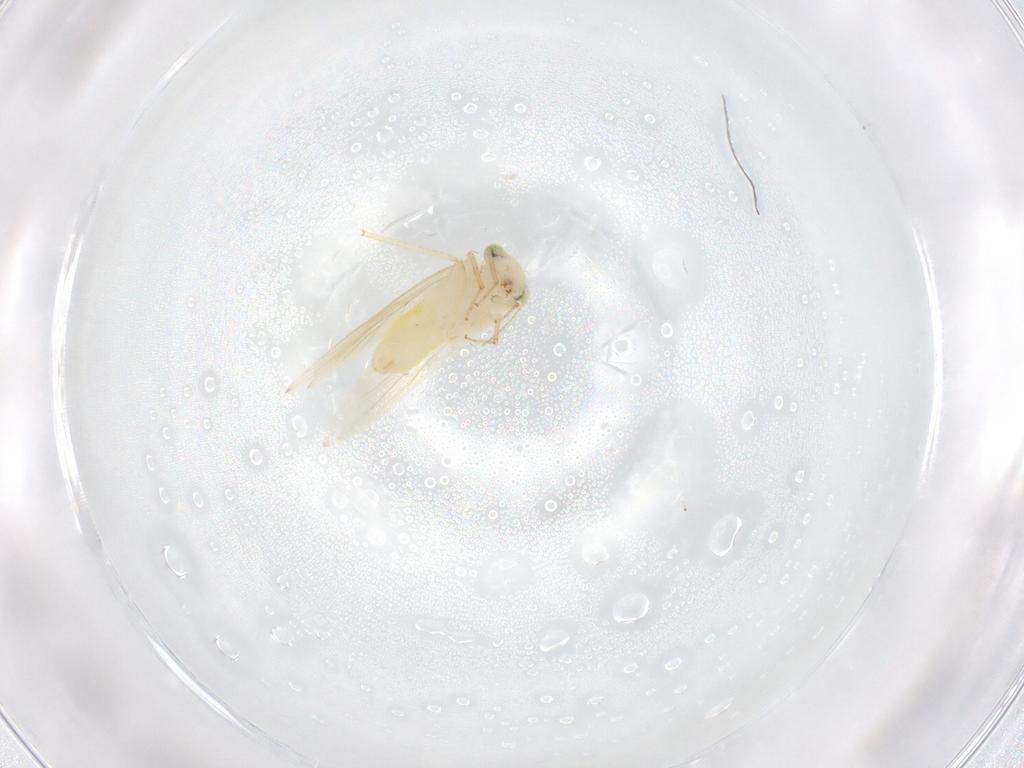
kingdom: Animalia
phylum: Arthropoda
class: Insecta
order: Psocodea
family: Lepidopsocidae
